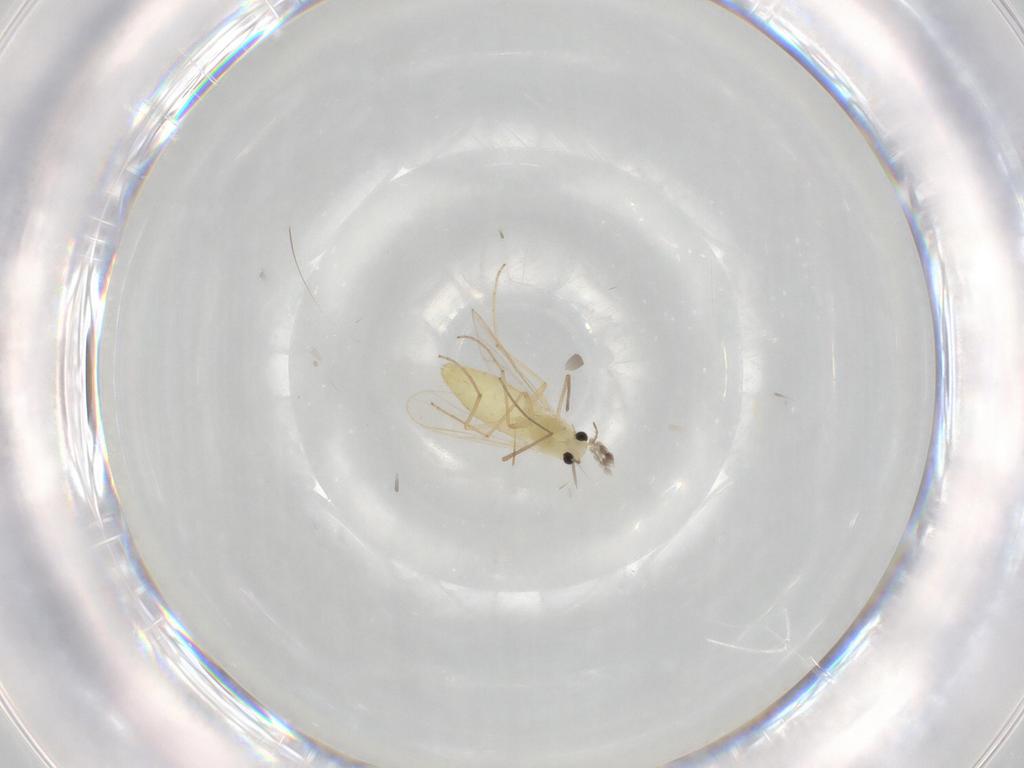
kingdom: Animalia
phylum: Arthropoda
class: Insecta
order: Diptera
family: Chironomidae
